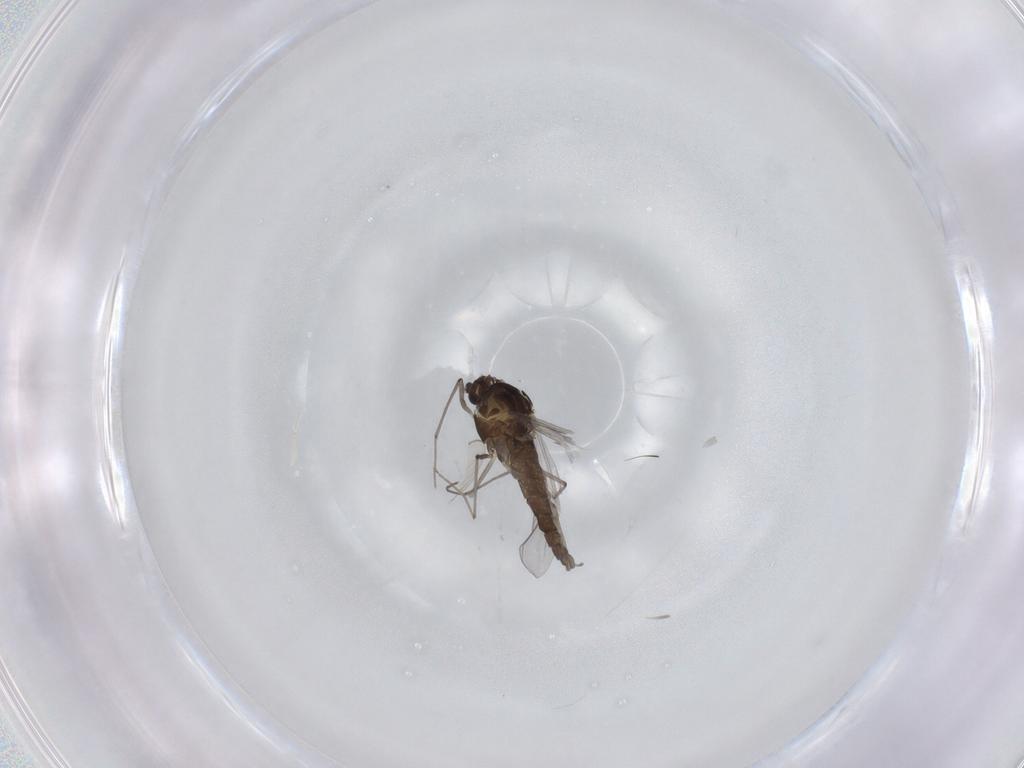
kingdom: Animalia
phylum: Arthropoda
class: Insecta
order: Diptera
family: Chironomidae
